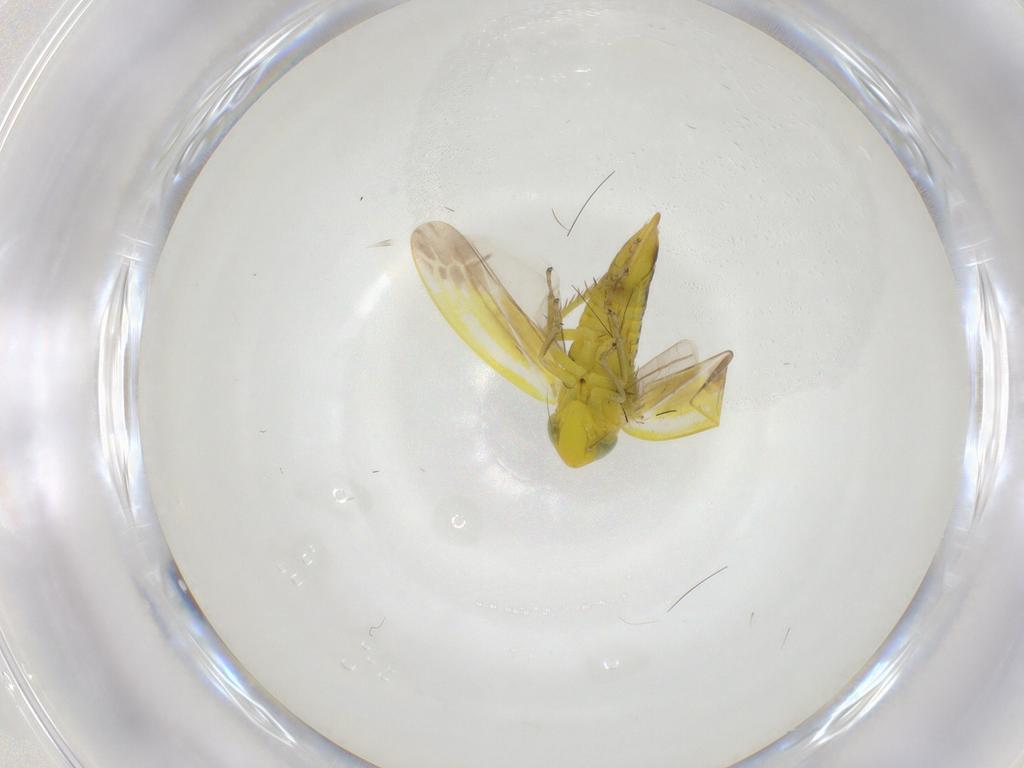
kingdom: Animalia
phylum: Arthropoda
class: Insecta
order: Hemiptera
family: Cicadellidae
